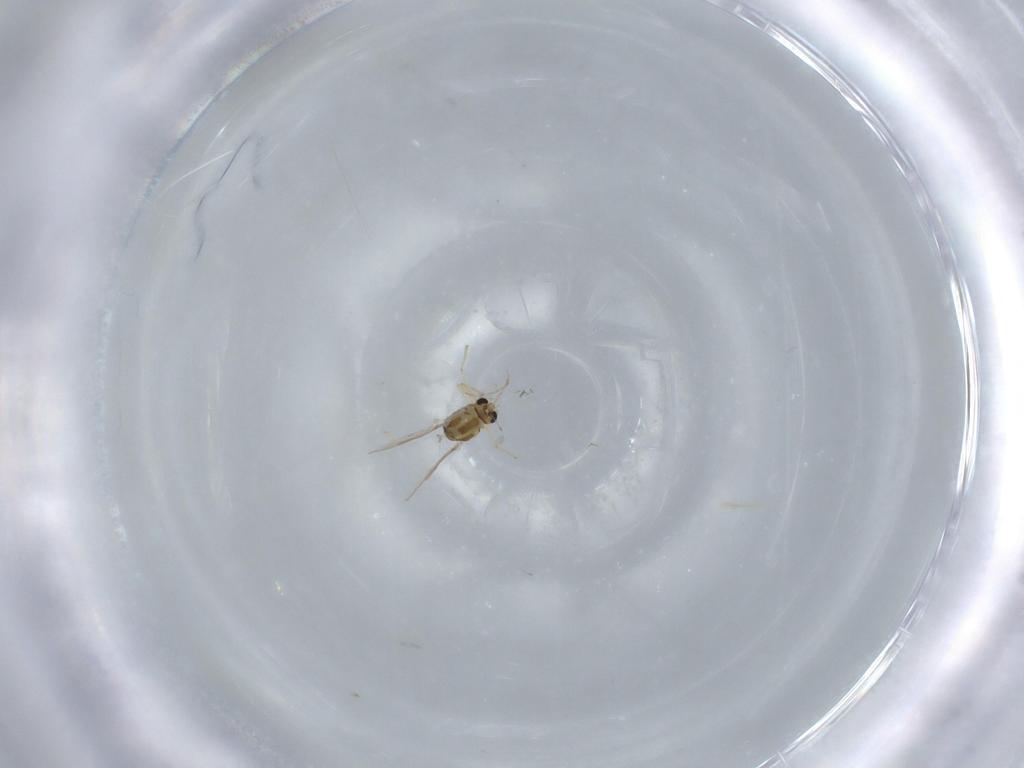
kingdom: Animalia
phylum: Arthropoda
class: Insecta
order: Diptera
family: Chironomidae
